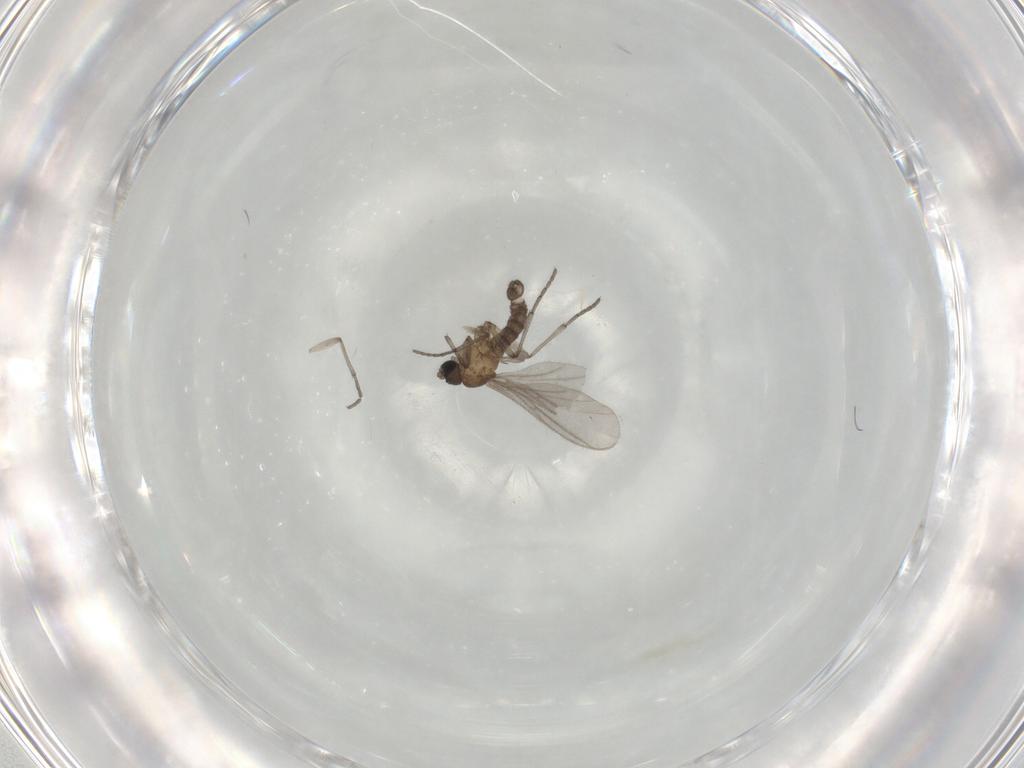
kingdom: Animalia
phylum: Arthropoda
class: Insecta
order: Diptera
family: Sciaridae
